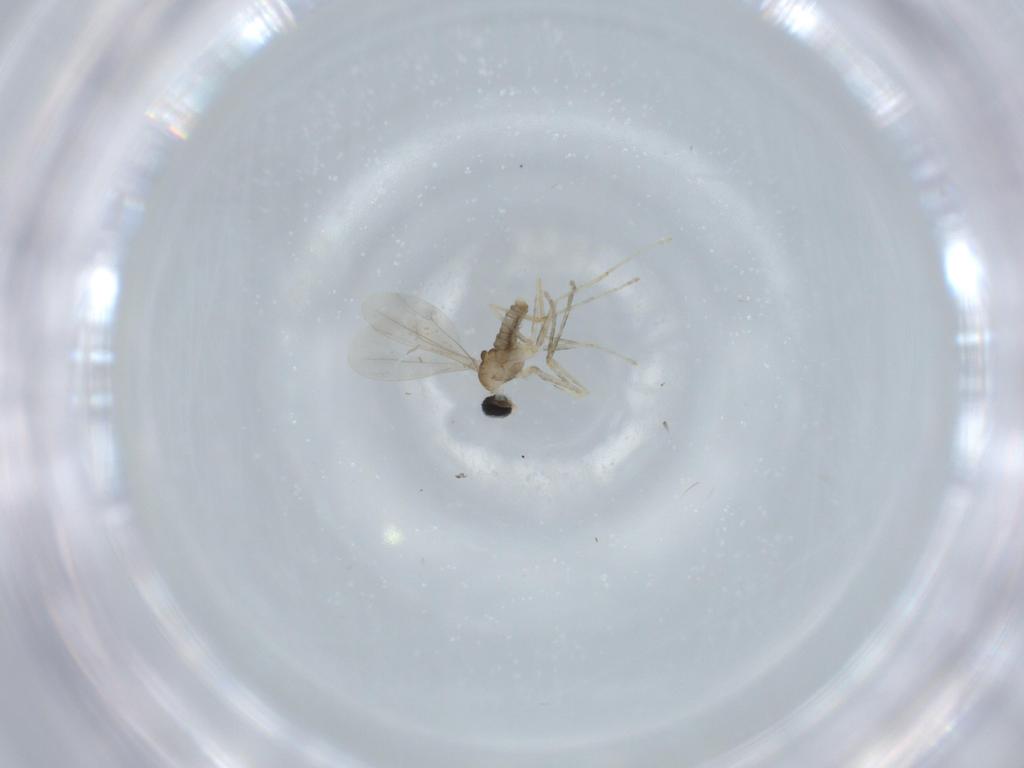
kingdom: Animalia
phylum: Arthropoda
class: Insecta
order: Diptera
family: Cecidomyiidae
